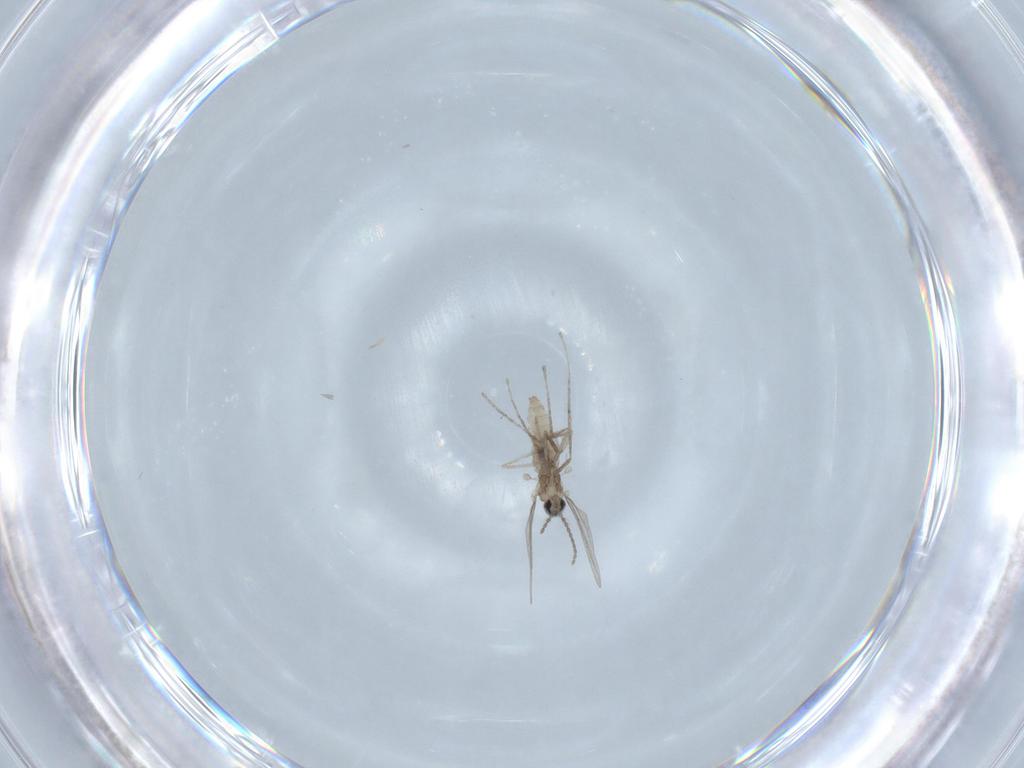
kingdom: Animalia
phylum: Arthropoda
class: Insecta
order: Diptera
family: Cecidomyiidae
